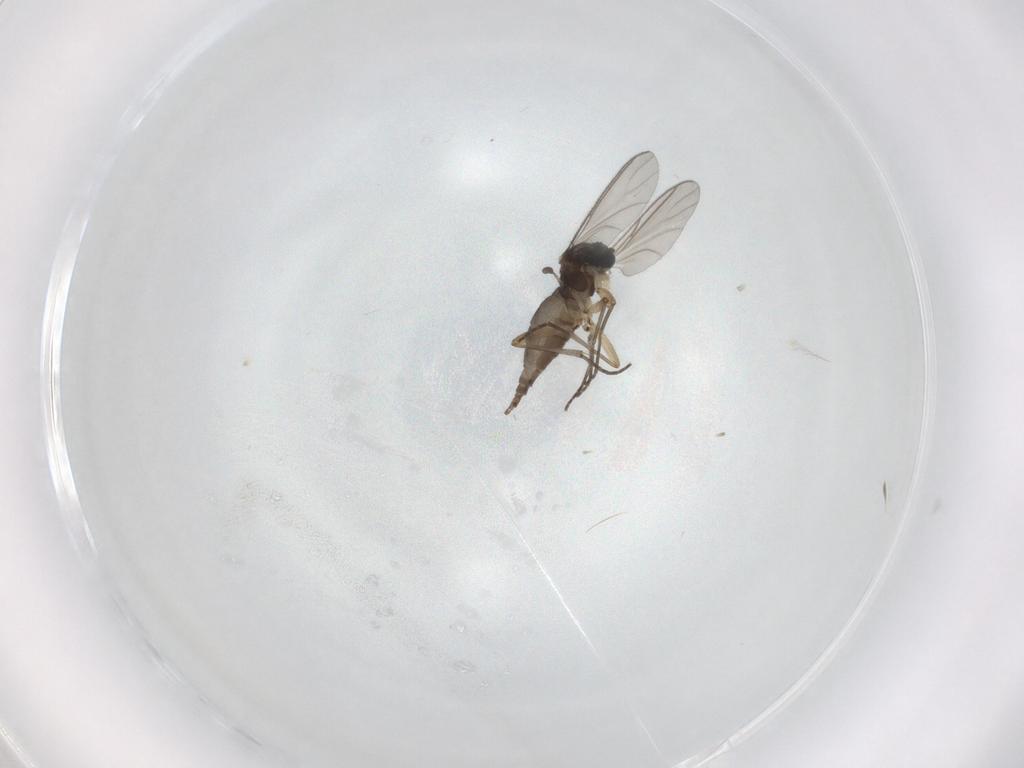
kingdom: Animalia
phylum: Arthropoda
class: Insecta
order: Diptera
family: Sciaridae
